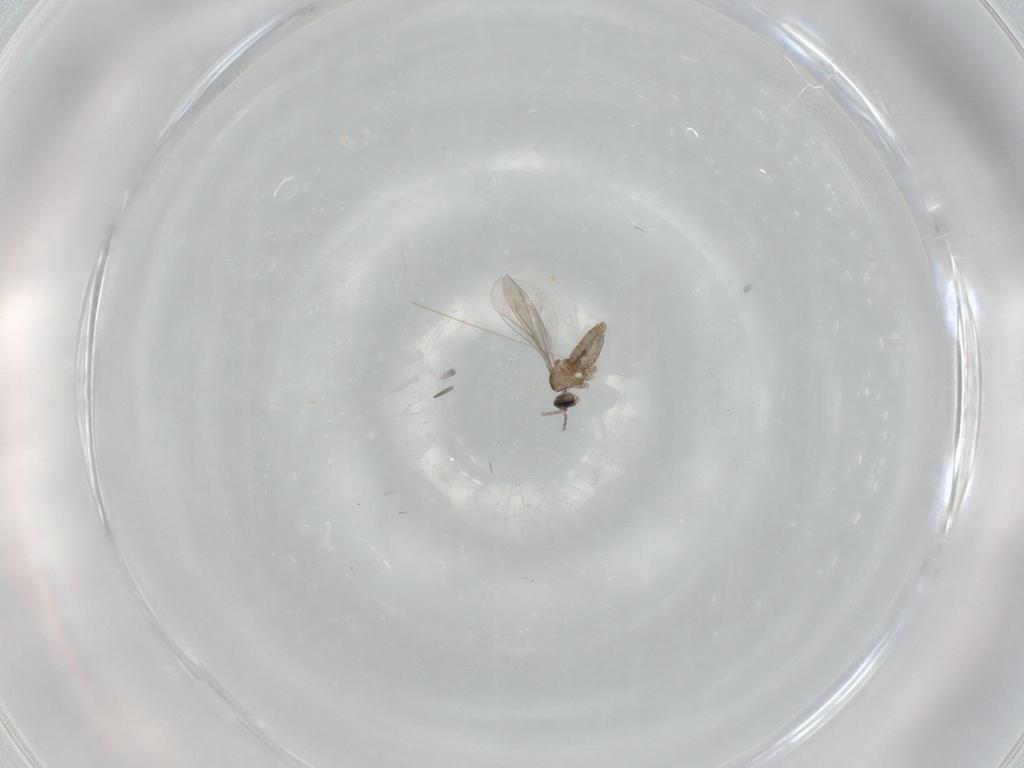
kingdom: Animalia
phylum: Arthropoda
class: Insecta
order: Diptera
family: Cecidomyiidae
